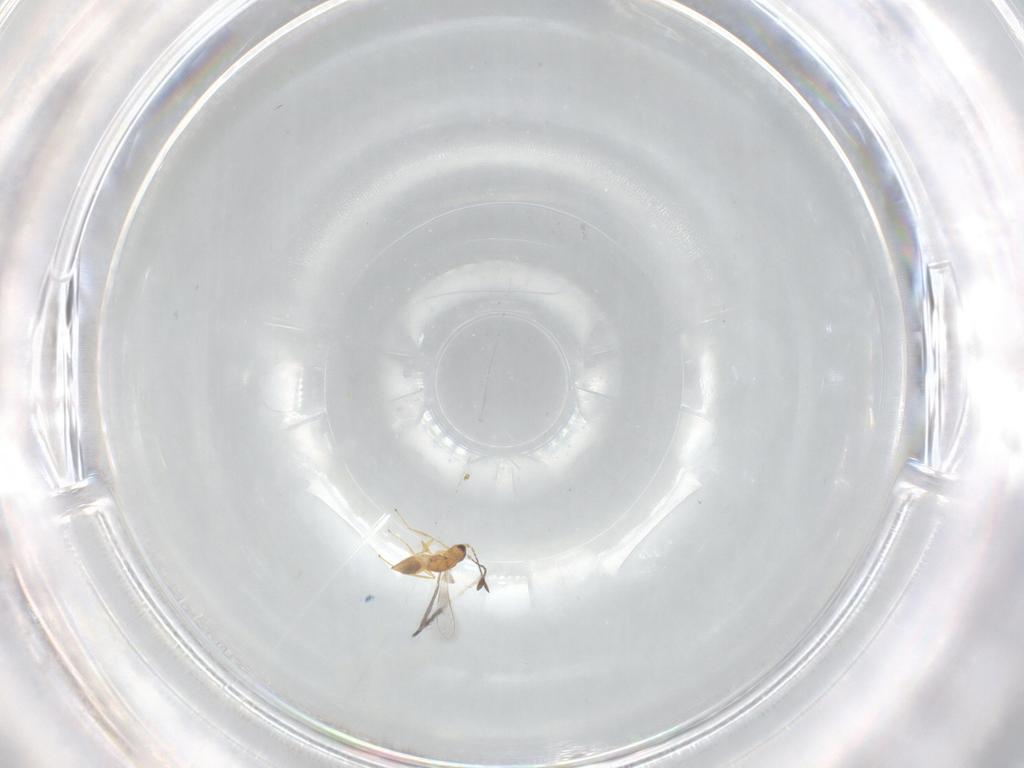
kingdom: Animalia
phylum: Arthropoda
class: Insecta
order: Hymenoptera
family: Mymaridae
